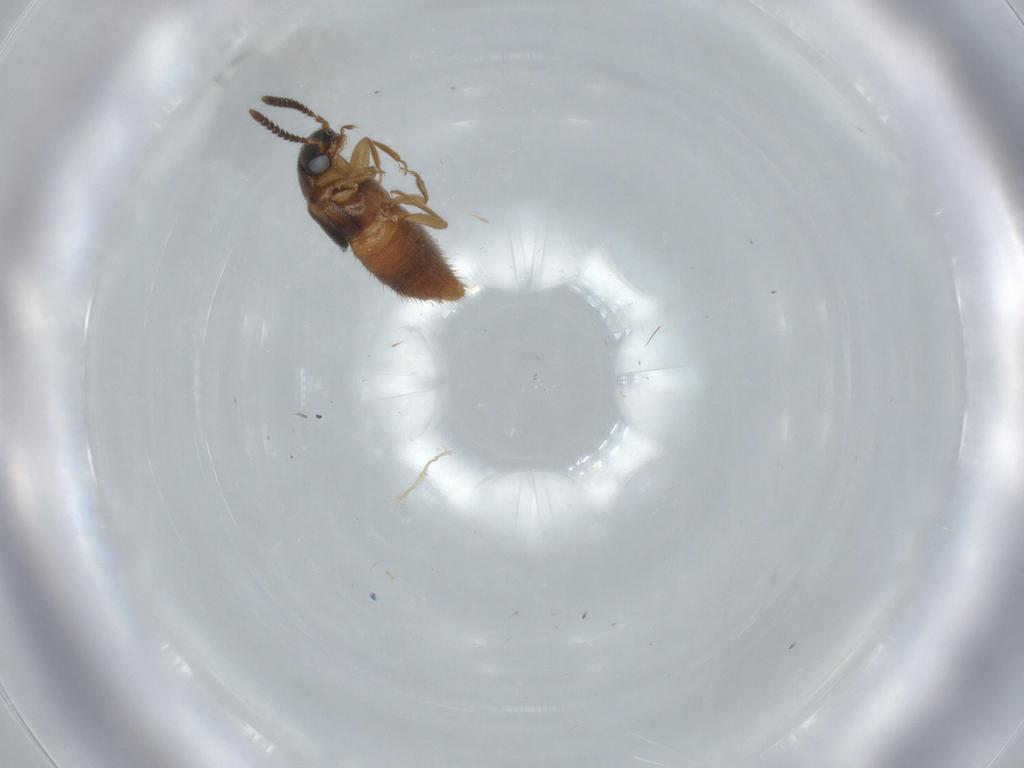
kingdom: Animalia
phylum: Arthropoda
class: Insecta
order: Coleoptera
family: Staphylinidae
